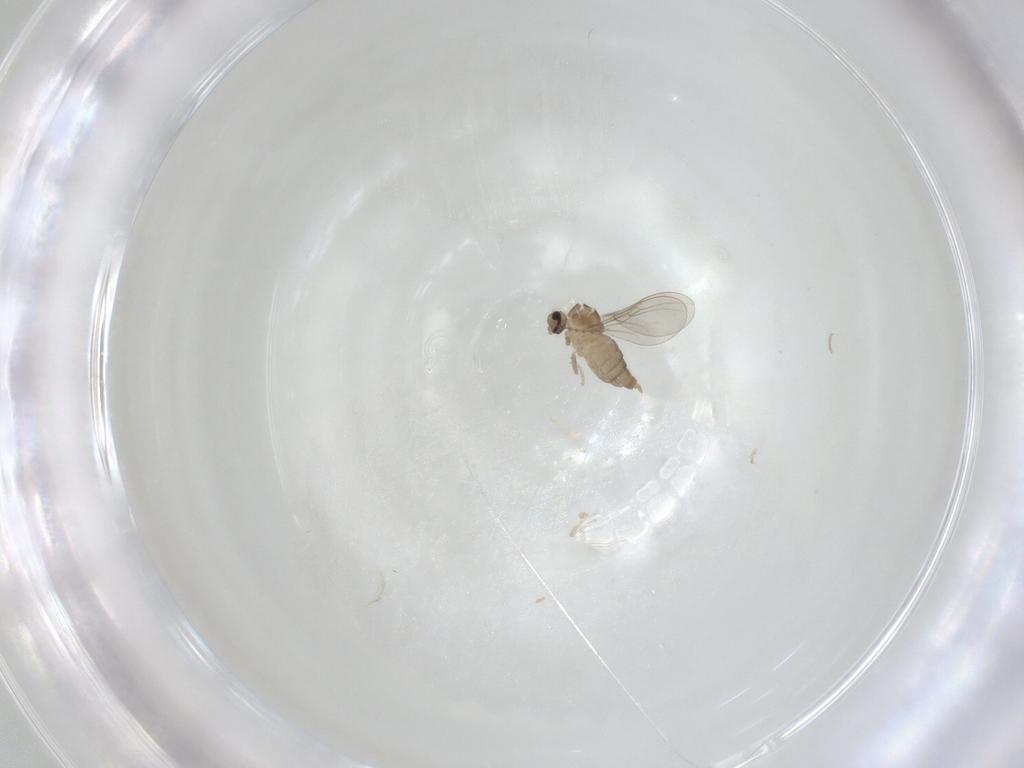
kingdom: Animalia
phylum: Arthropoda
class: Insecta
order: Diptera
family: Cecidomyiidae
